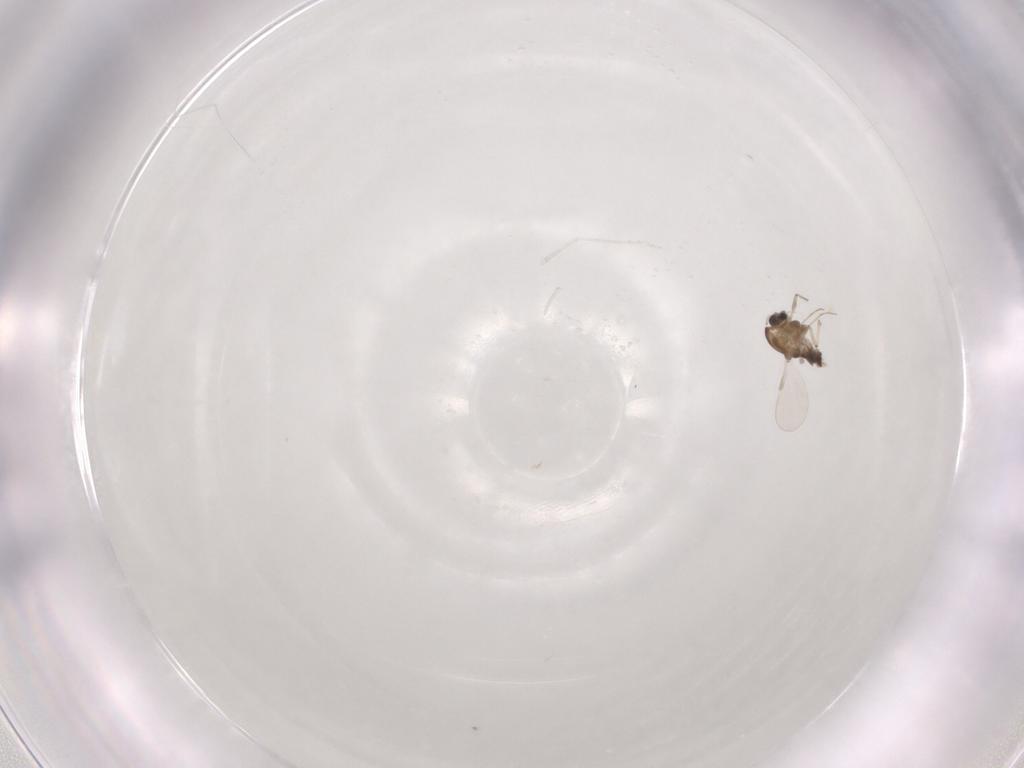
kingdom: Animalia
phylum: Arthropoda
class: Insecta
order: Diptera
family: Chironomidae
